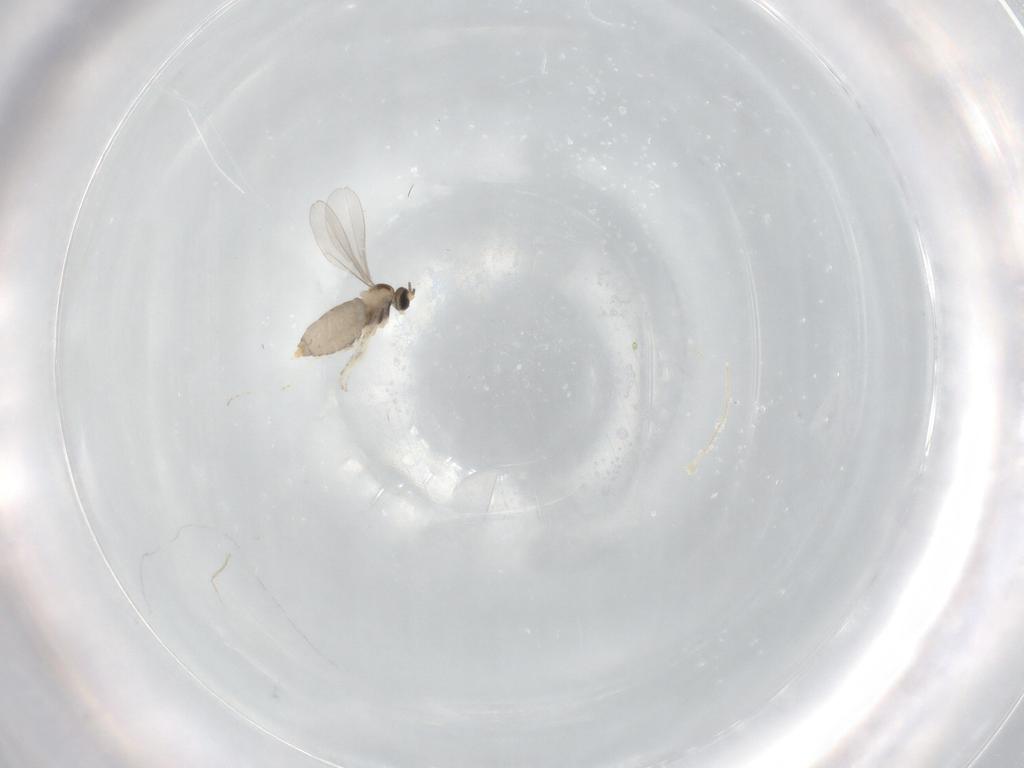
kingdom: Animalia
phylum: Arthropoda
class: Insecta
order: Diptera
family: Cecidomyiidae
